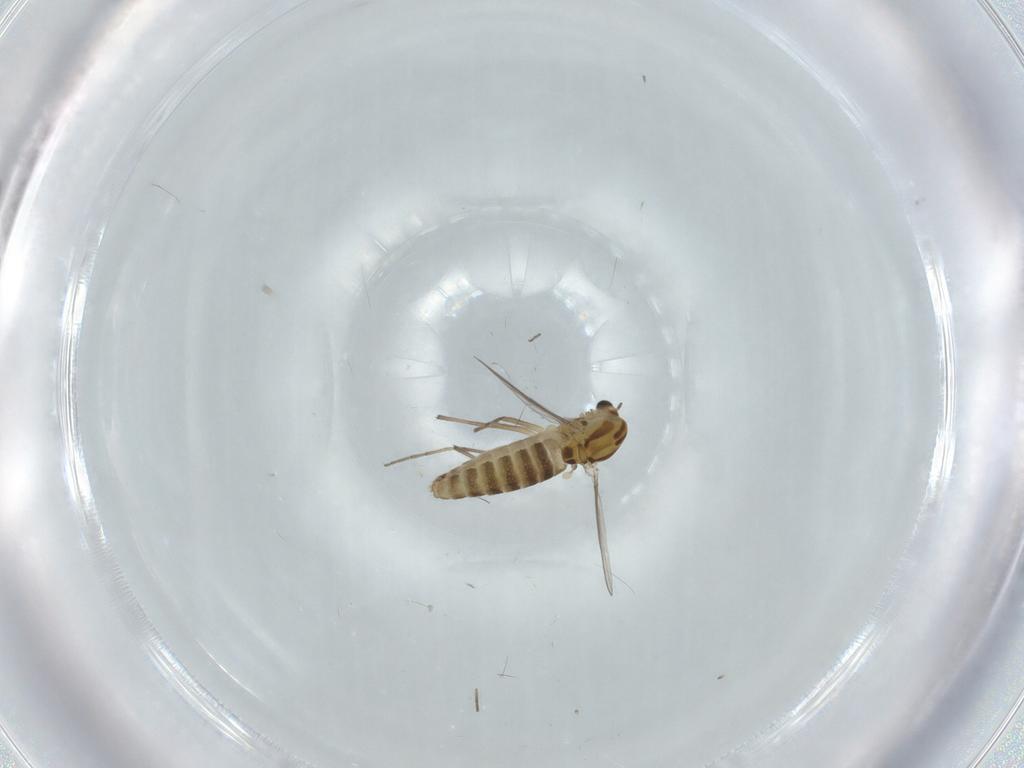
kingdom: Animalia
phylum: Arthropoda
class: Insecta
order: Diptera
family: Chironomidae
